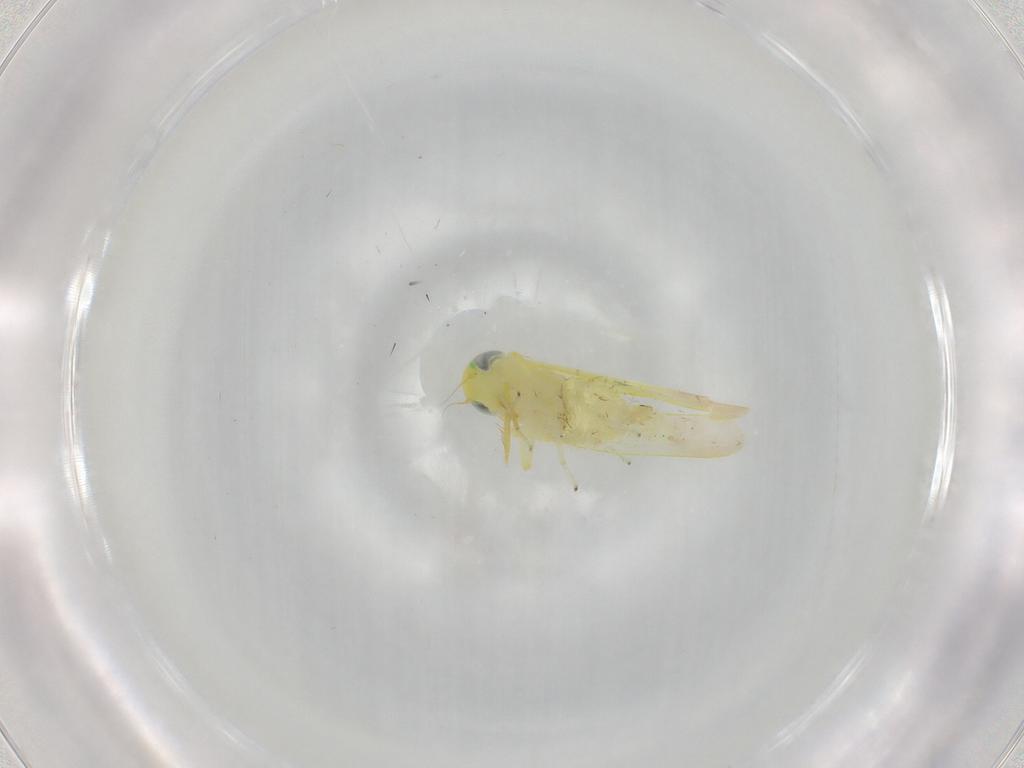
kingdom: Animalia
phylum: Arthropoda
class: Insecta
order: Hemiptera
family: Cicadellidae
